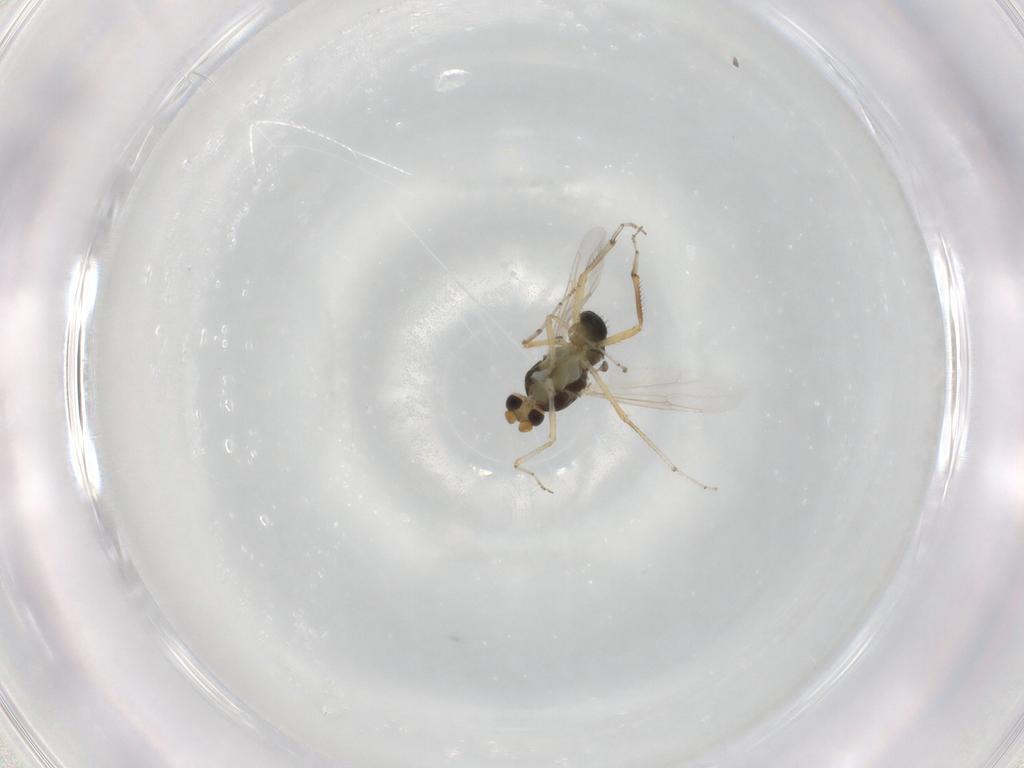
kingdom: Animalia
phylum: Arthropoda
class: Insecta
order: Diptera
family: Ceratopogonidae
